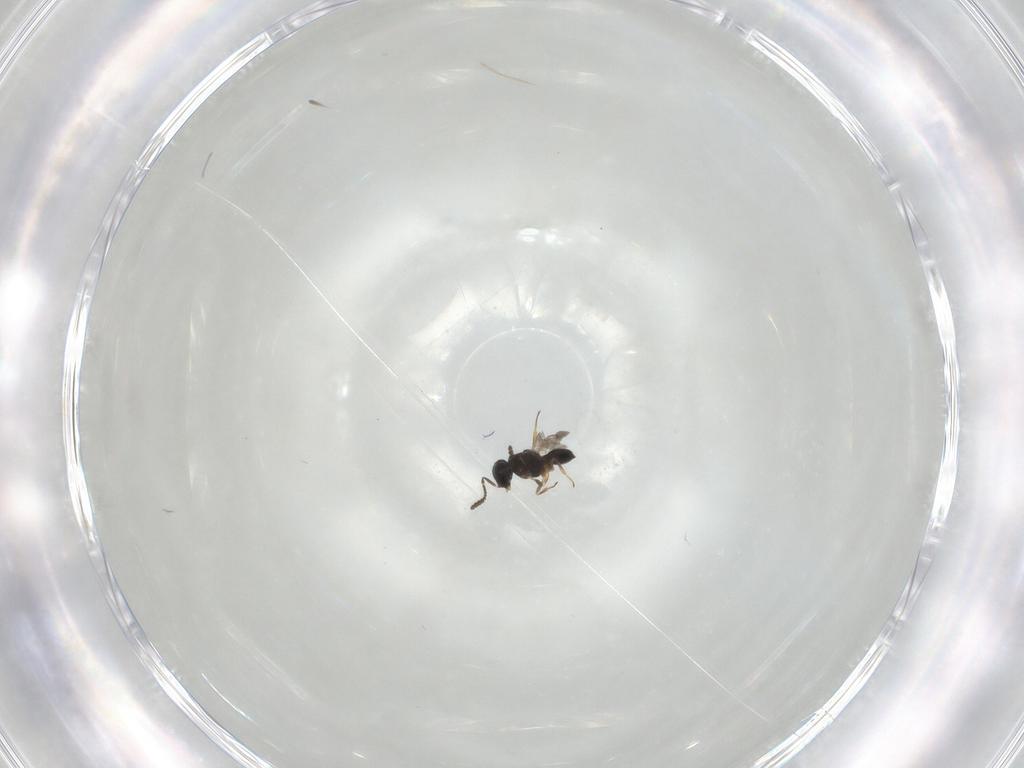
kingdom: Animalia
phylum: Arthropoda
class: Insecta
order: Hymenoptera
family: Scelionidae
